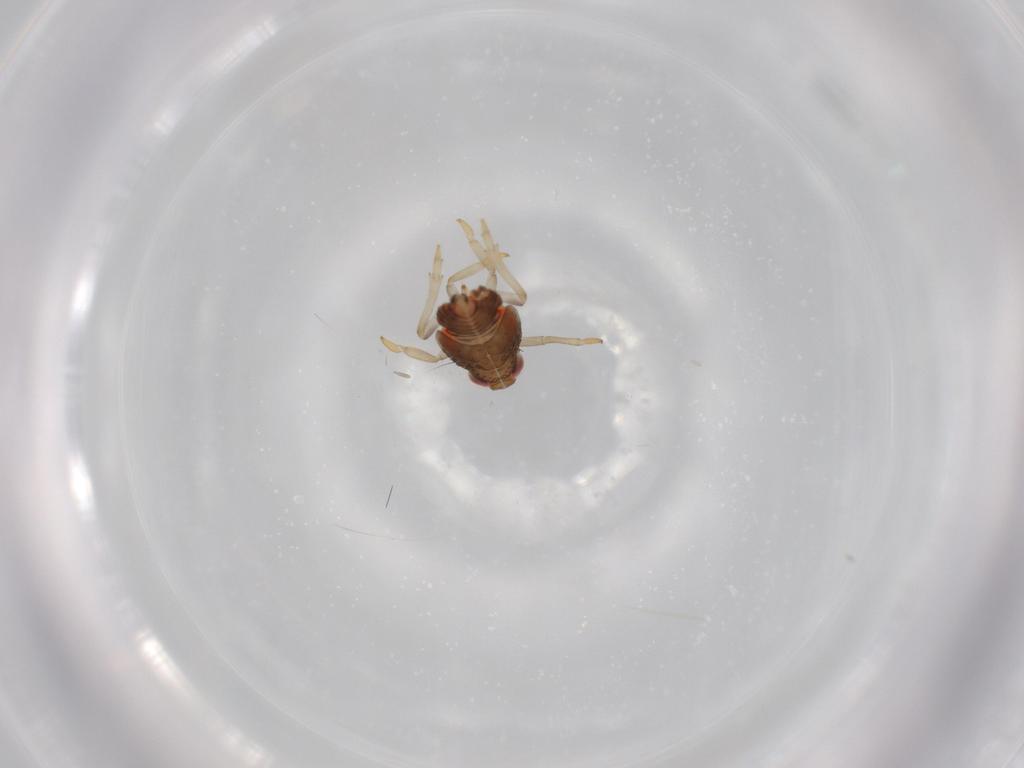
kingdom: Animalia
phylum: Arthropoda
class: Insecta
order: Hemiptera
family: Issidae
